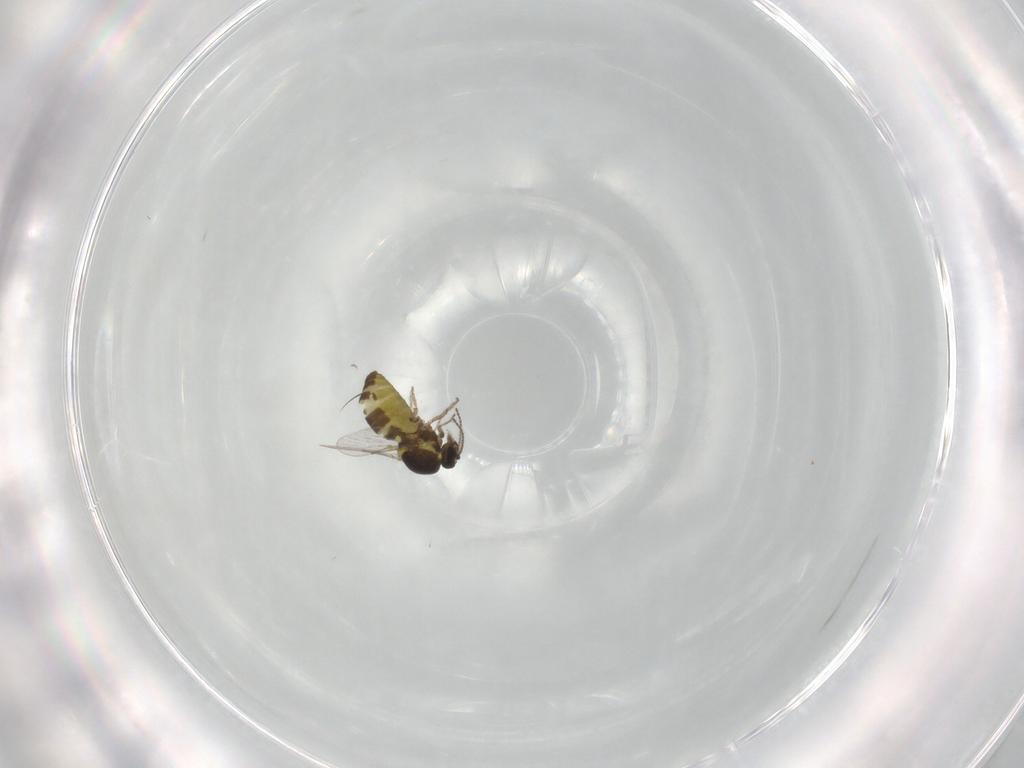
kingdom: Animalia
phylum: Arthropoda
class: Insecta
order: Diptera
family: Ceratopogonidae
